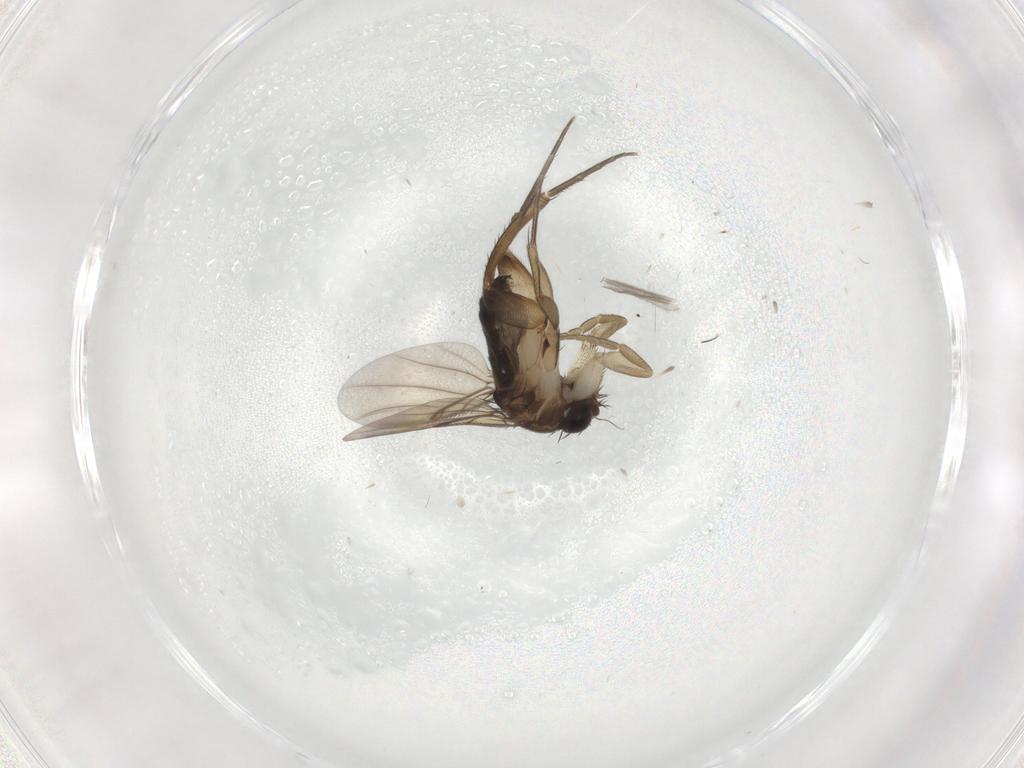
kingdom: Animalia
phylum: Arthropoda
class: Insecta
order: Diptera
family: Phoridae
